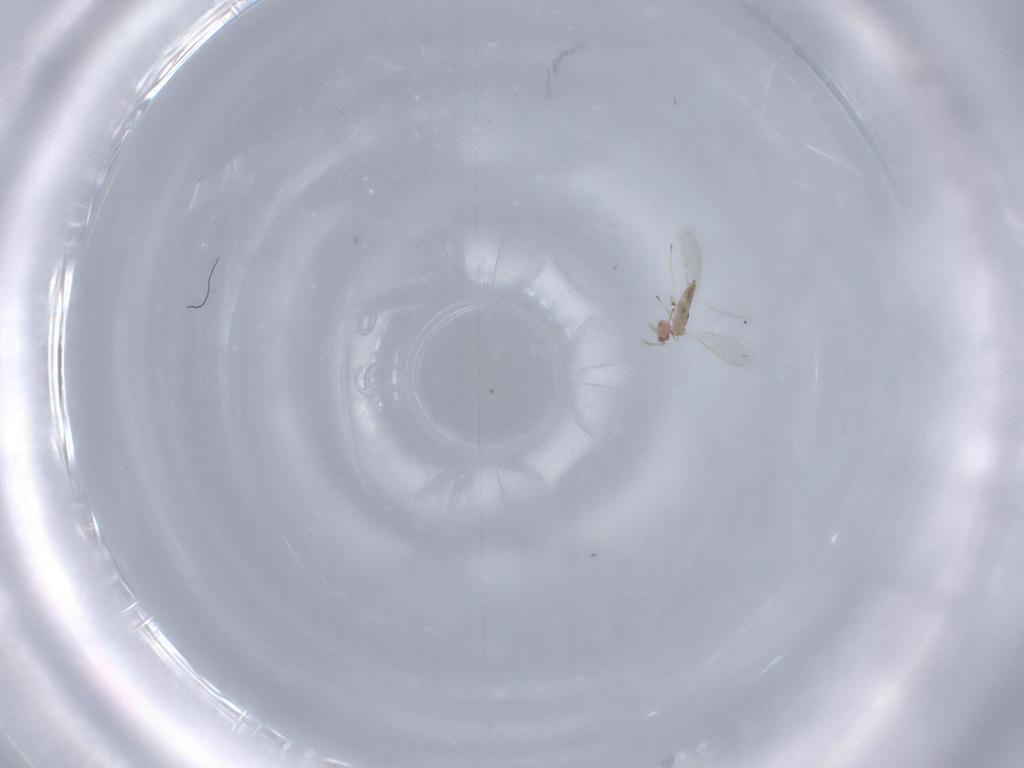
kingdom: Animalia
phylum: Arthropoda
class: Insecta
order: Hymenoptera
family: Eulophidae
